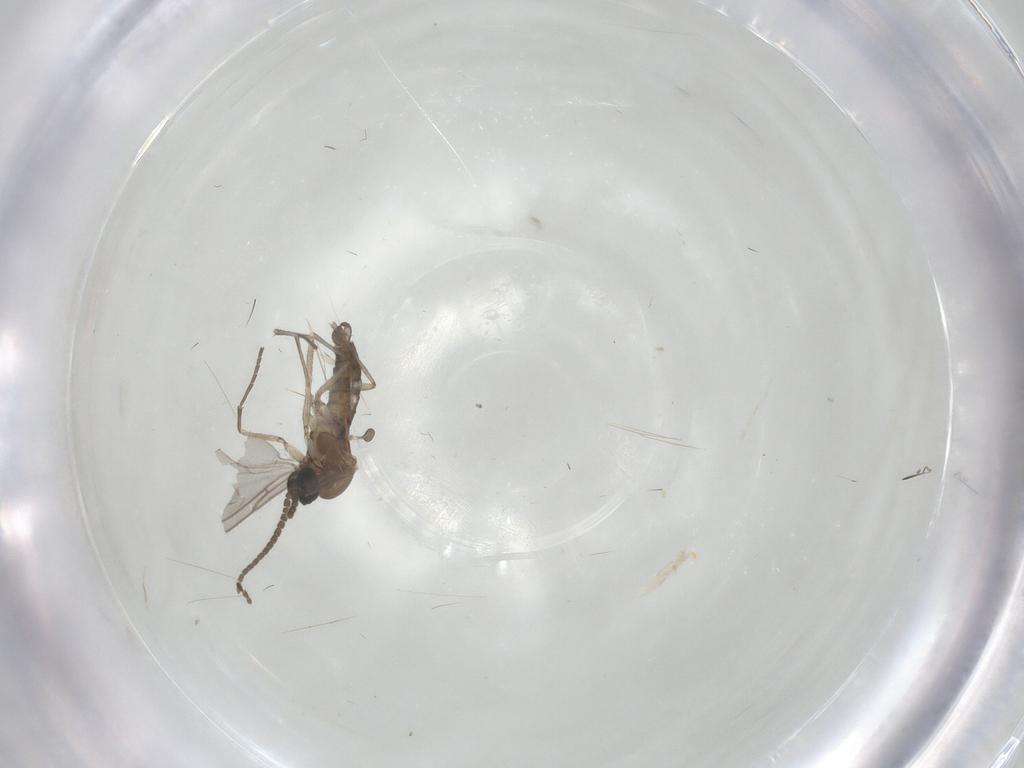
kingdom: Animalia
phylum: Arthropoda
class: Insecta
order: Diptera
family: Sciaridae
